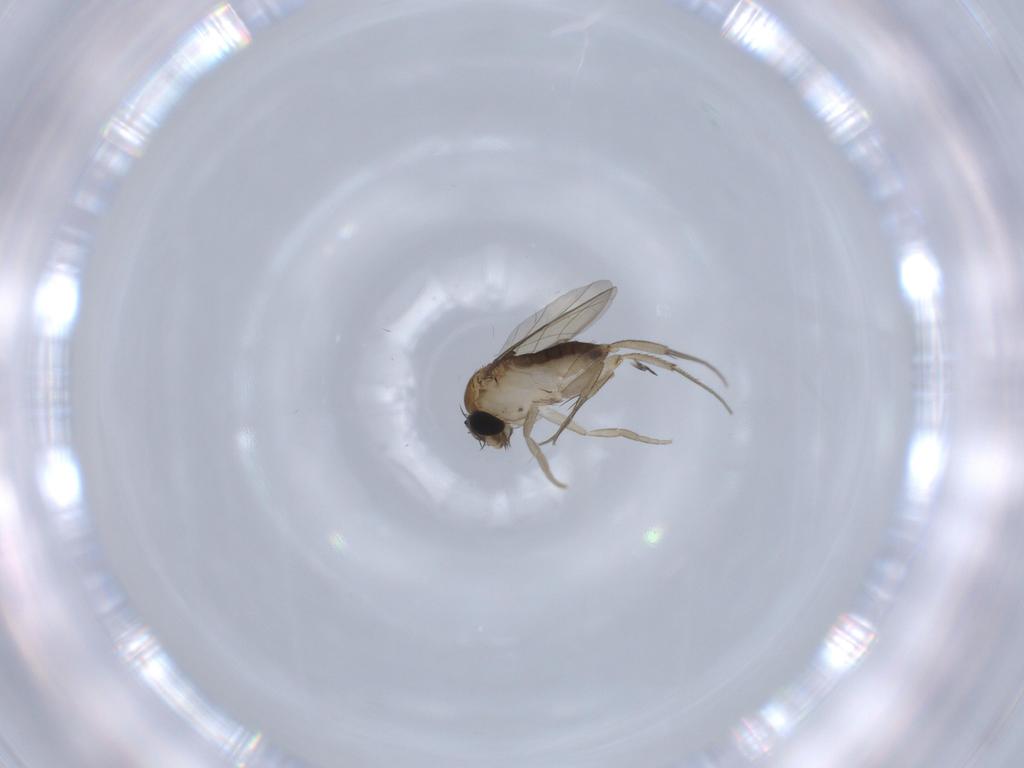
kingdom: Animalia
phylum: Arthropoda
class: Insecta
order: Diptera
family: Phoridae
